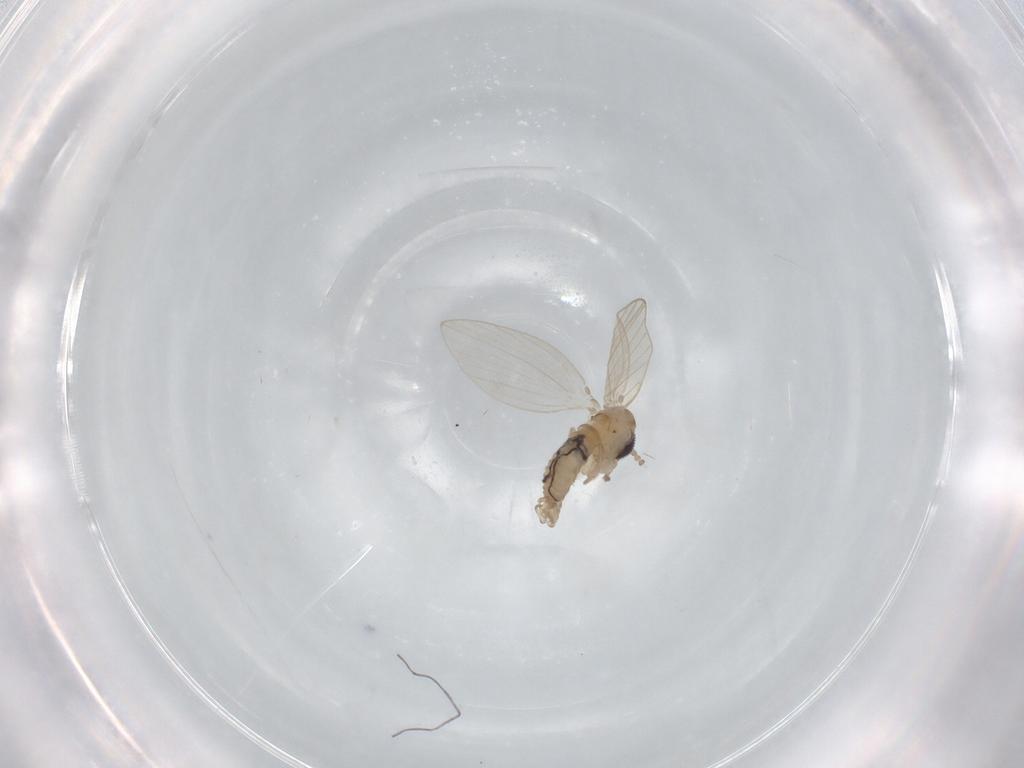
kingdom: Animalia
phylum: Arthropoda
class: Insecta
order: Diptera
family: Psychodidae
